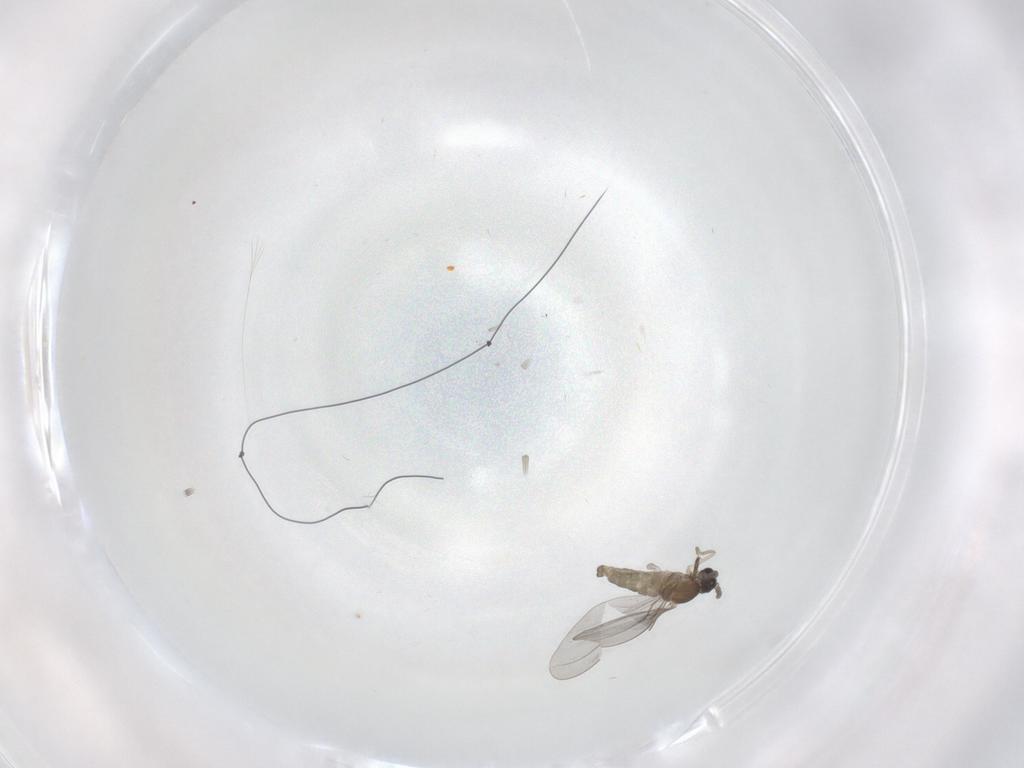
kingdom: Animalia
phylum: Arthropoda
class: Insecta
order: Diptera
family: Cecidomyiidae
